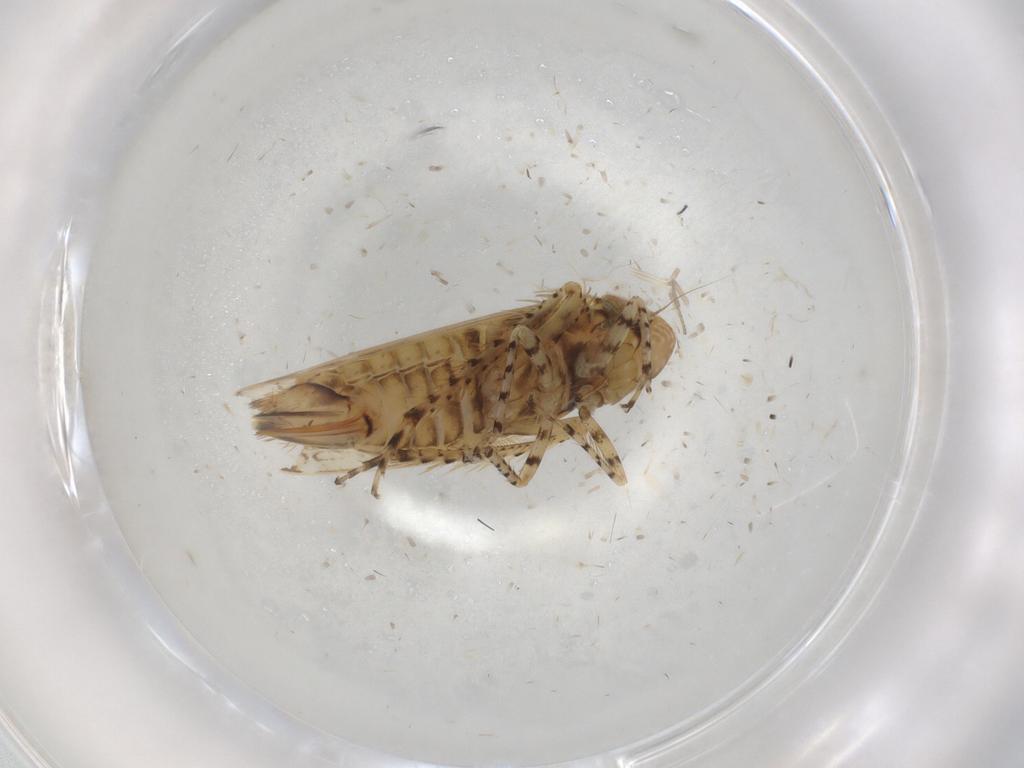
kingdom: Animalia
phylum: Arthropoda
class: Insecta
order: Hemiptera
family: Cicadellidae
